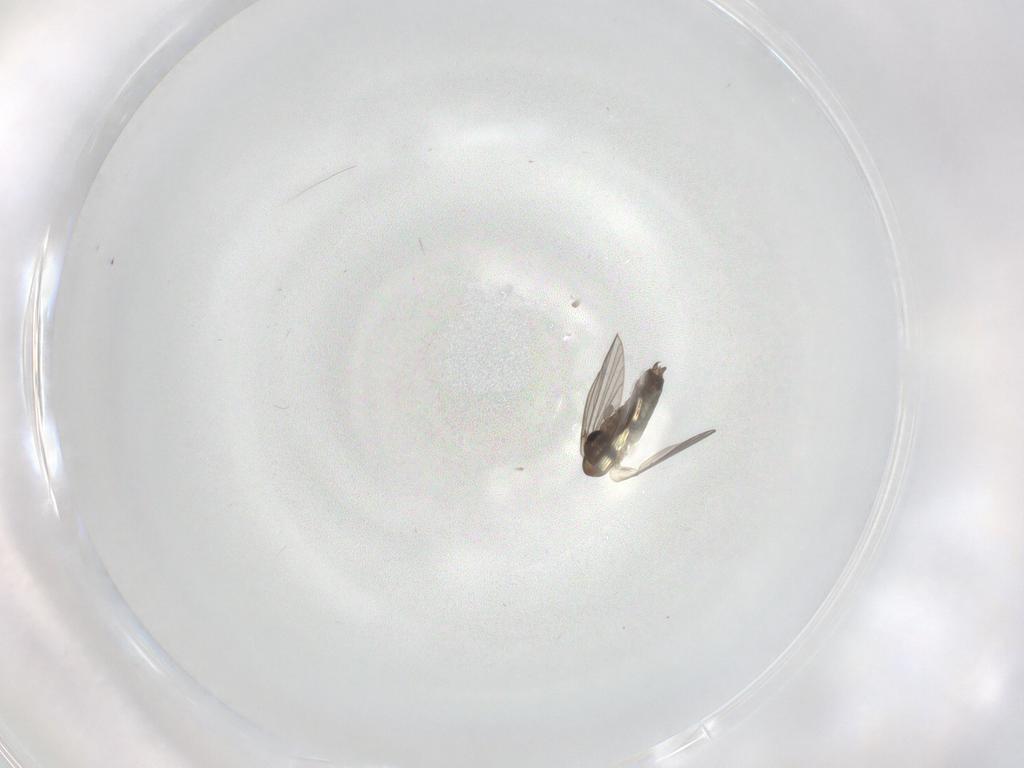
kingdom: Animalia
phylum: Arthropoda
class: Insecta
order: Diptera
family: Cecidomyiidae
